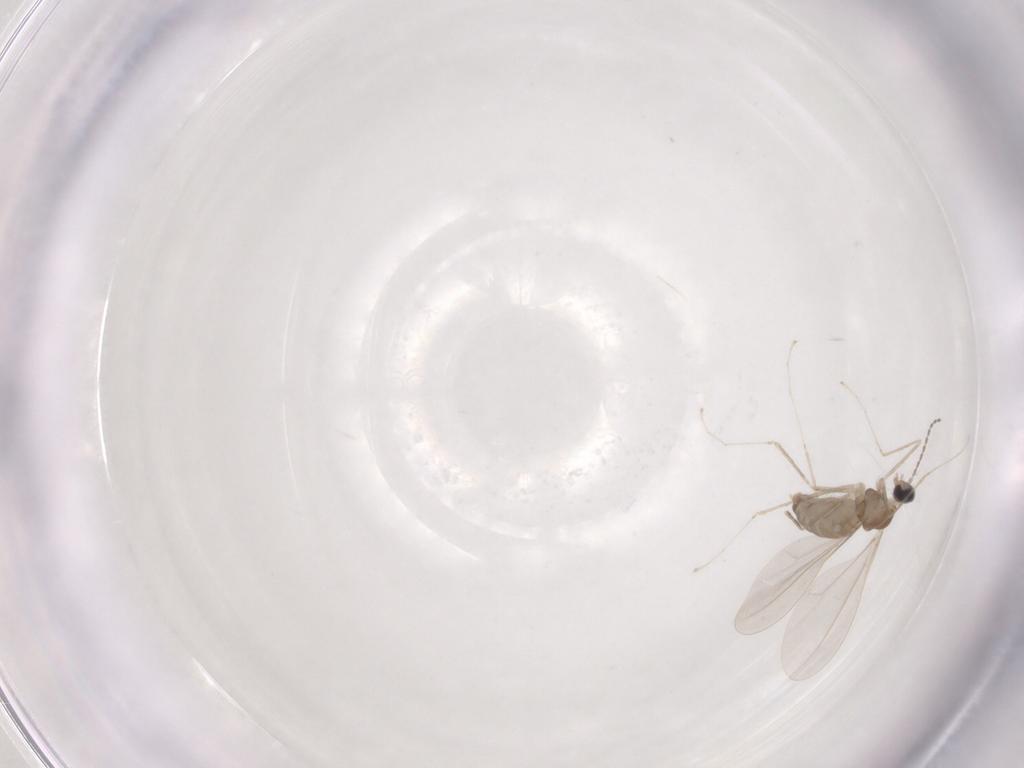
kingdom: Animalia
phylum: Arthropoda
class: Insecta
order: Diptera
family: Cecidomyiidae
